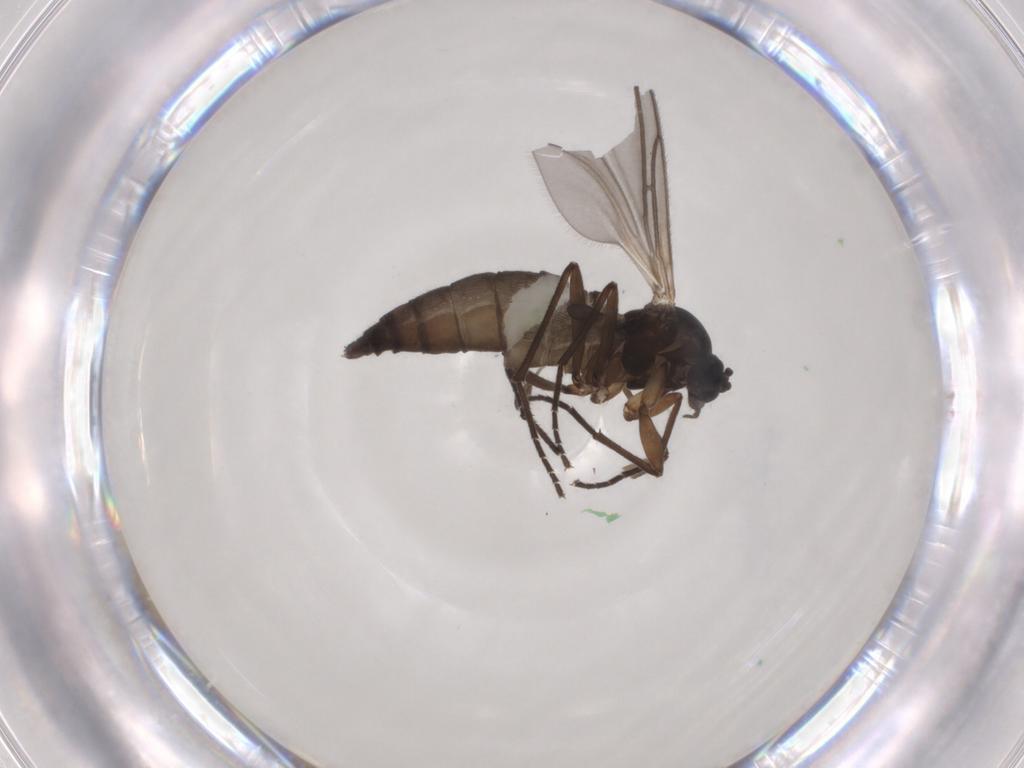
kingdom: Animalia
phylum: Arthropoda
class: Insecta
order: Diptera
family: Sciaridae
